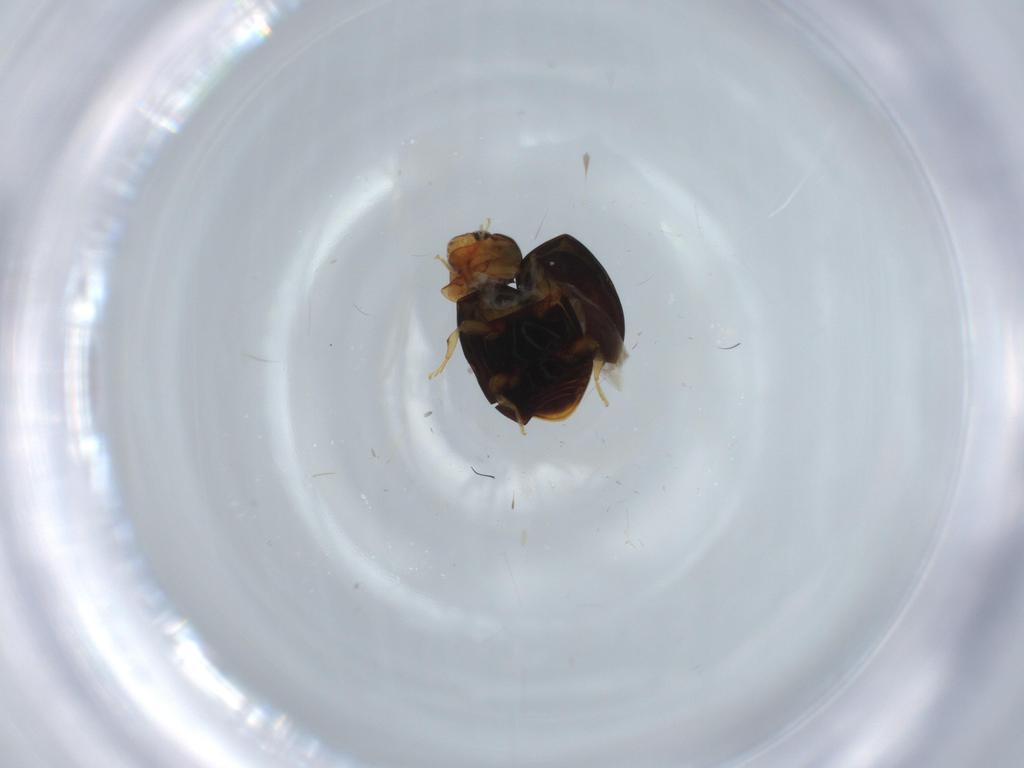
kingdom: Animalia
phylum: Arthropoda
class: Insecta
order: Coleoptera
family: Coccinellidae
